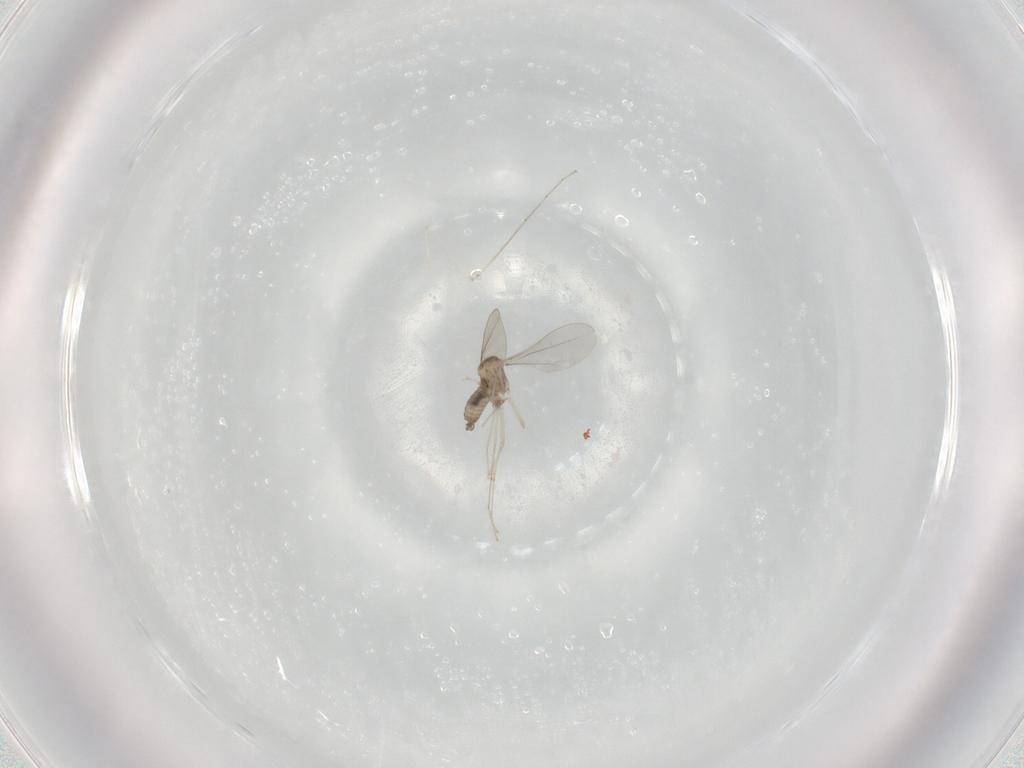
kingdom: Animalia
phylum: Arthropoda
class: Insecta
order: Diptera
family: Cecidomyiidae
